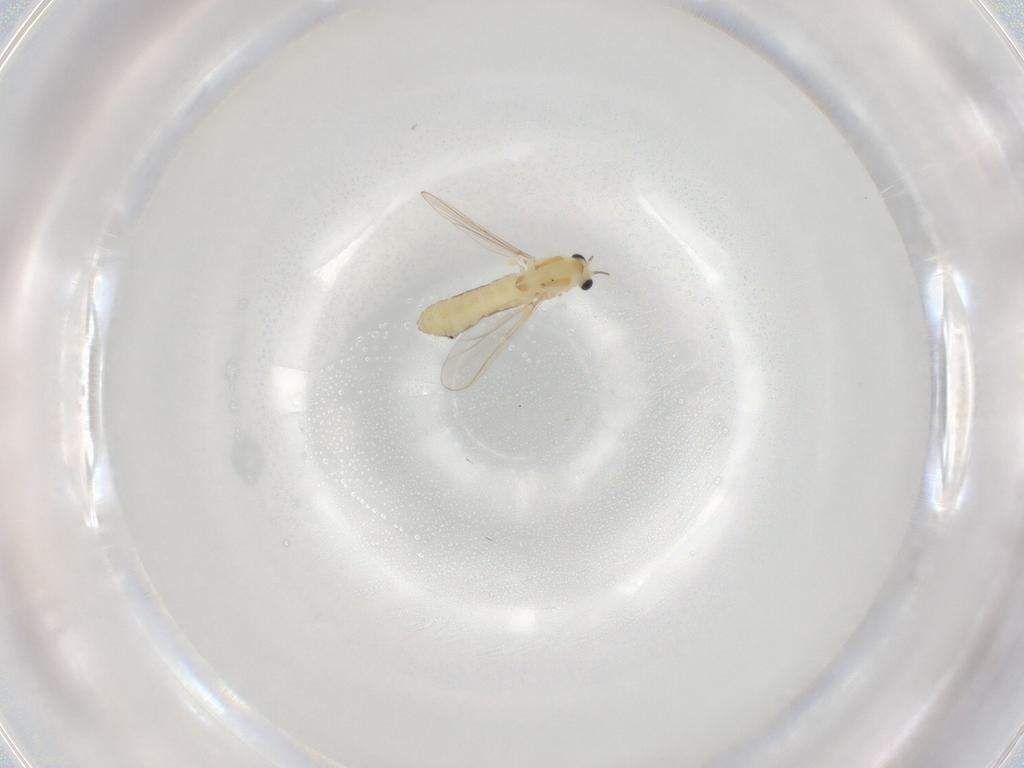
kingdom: Animalia
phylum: Arthropoda
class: Insecta
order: Diptera
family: Chironomidae
